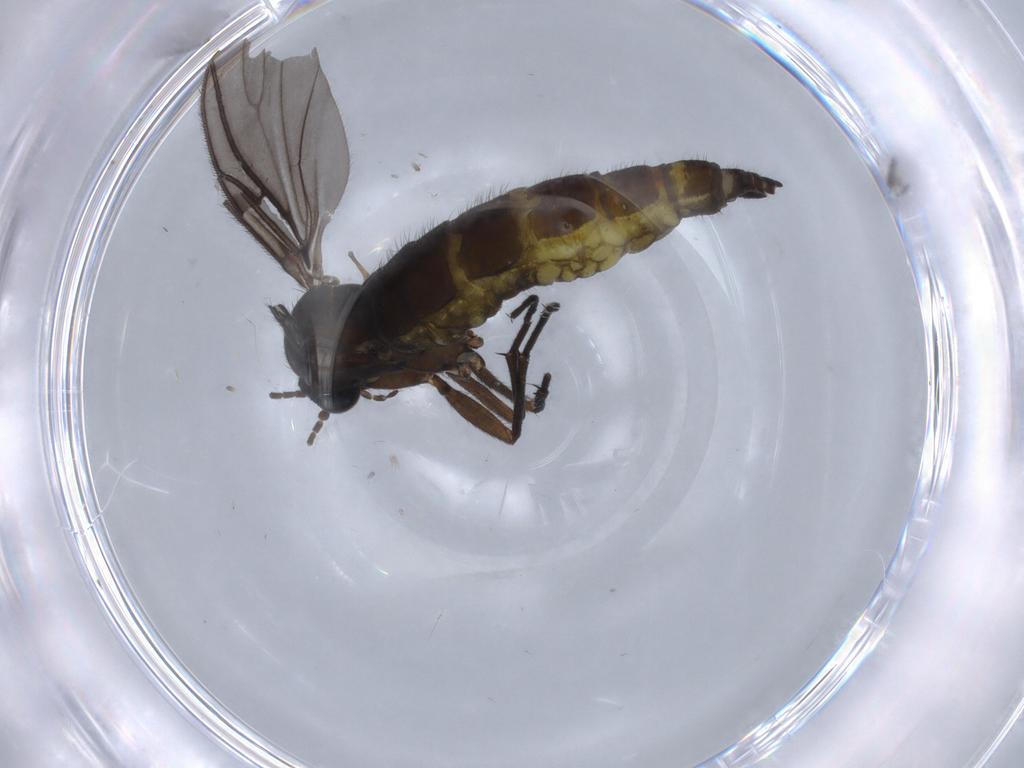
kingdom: Animalia
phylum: Arthropoda
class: Insecta
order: Diptera
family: Sciaridae
